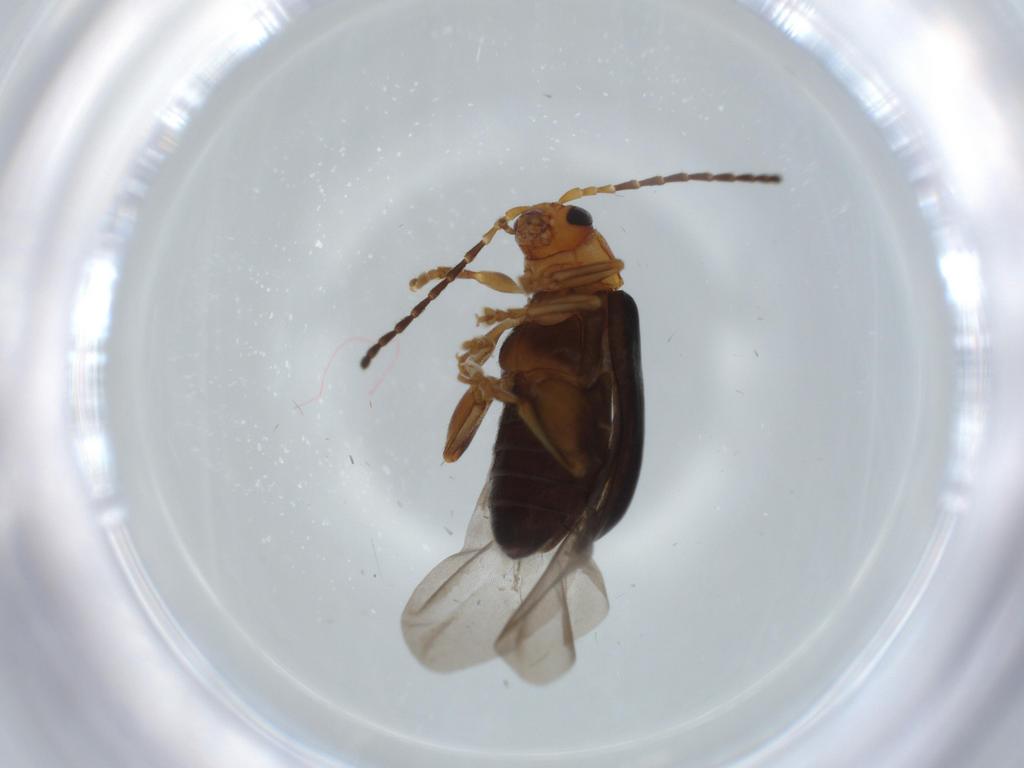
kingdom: Animalia
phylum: Arthropoda
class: Insecta
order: Coleoptera
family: Chrysomelidae
